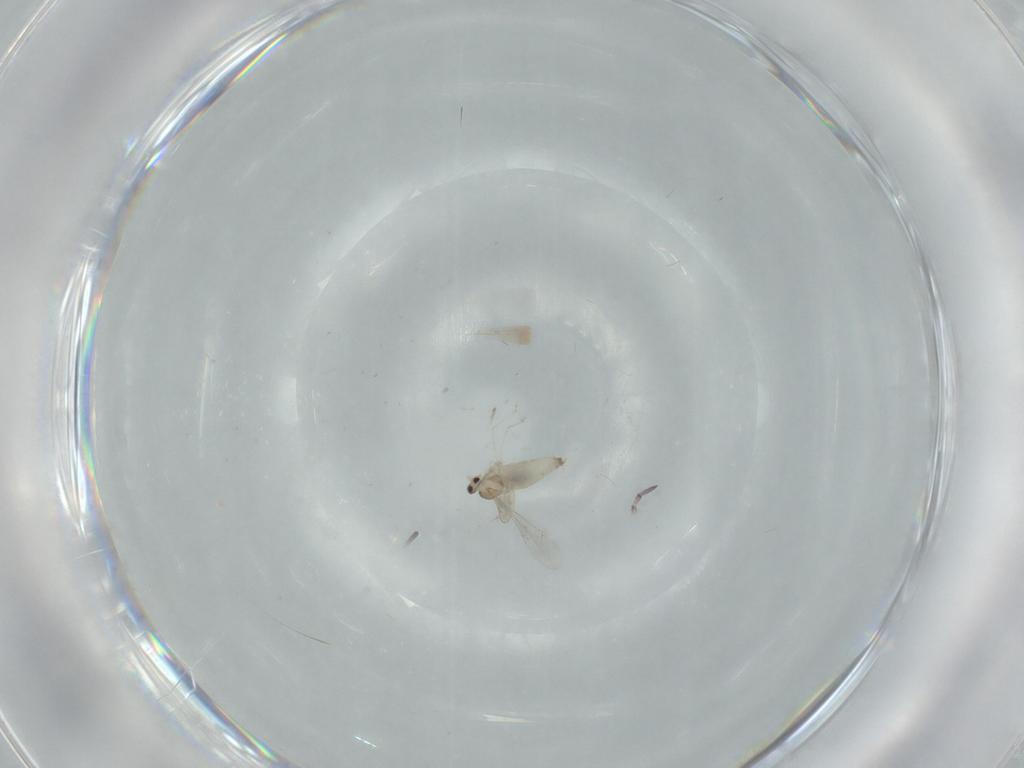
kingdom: Animalia
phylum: Arthropoda
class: Insecta
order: Diptera
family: Cecidomyiidae
